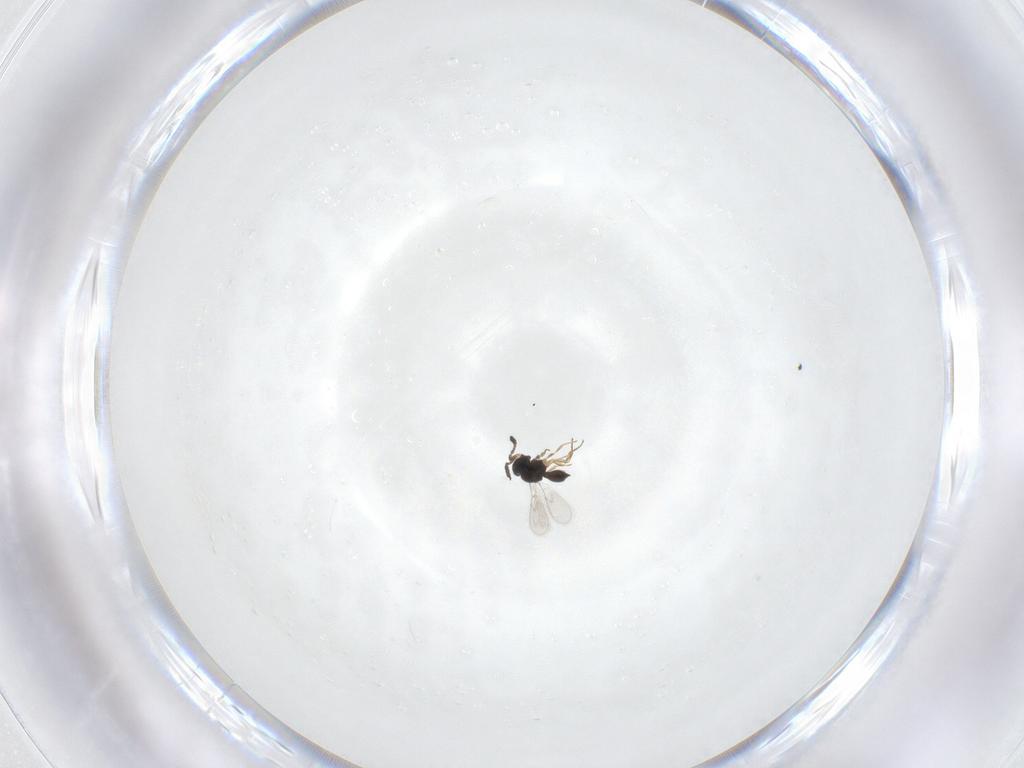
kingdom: Animalia
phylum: Arthropoda
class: Insecta
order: Hymenoptera
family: Scelionidae
